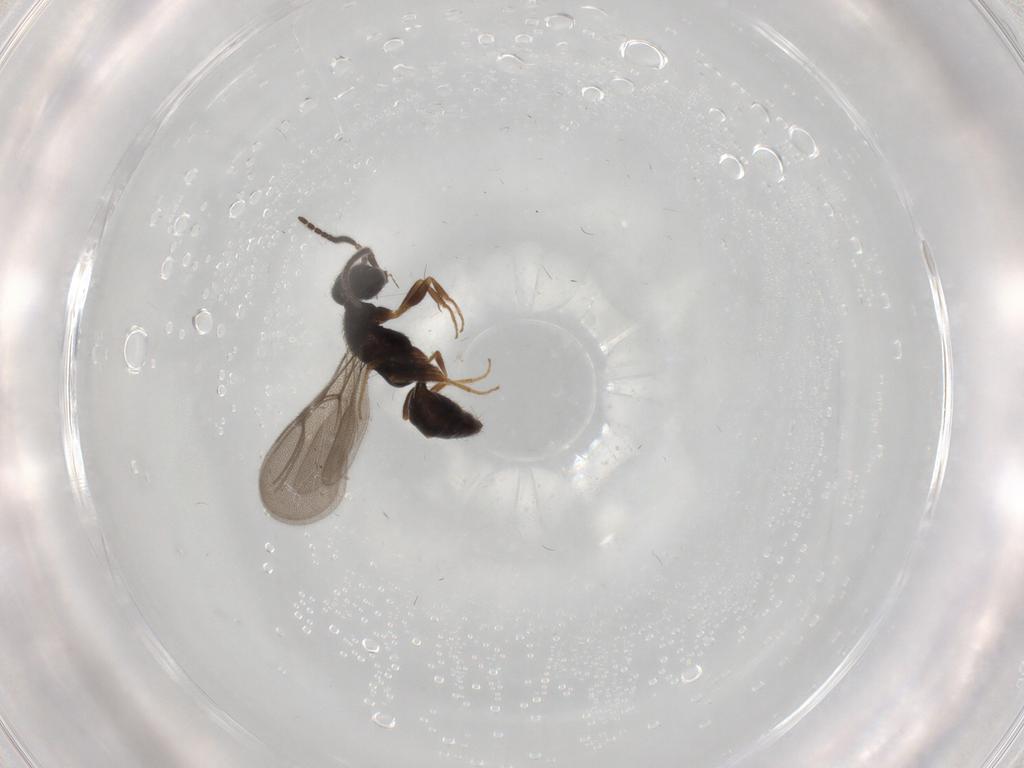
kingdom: Animalia
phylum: Arthropoda
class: Insecta
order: Hymenoptera
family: Bethylidae
